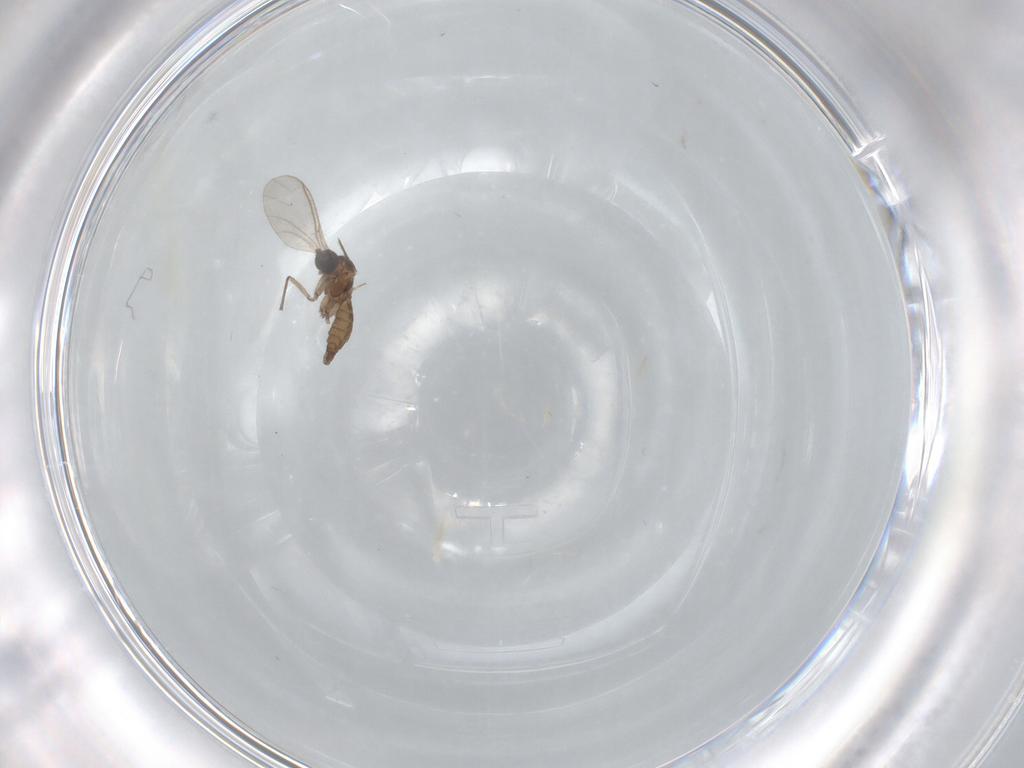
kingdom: Animalia
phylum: Arthropoda
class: Insecta
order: Diptera
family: Sciaridae
